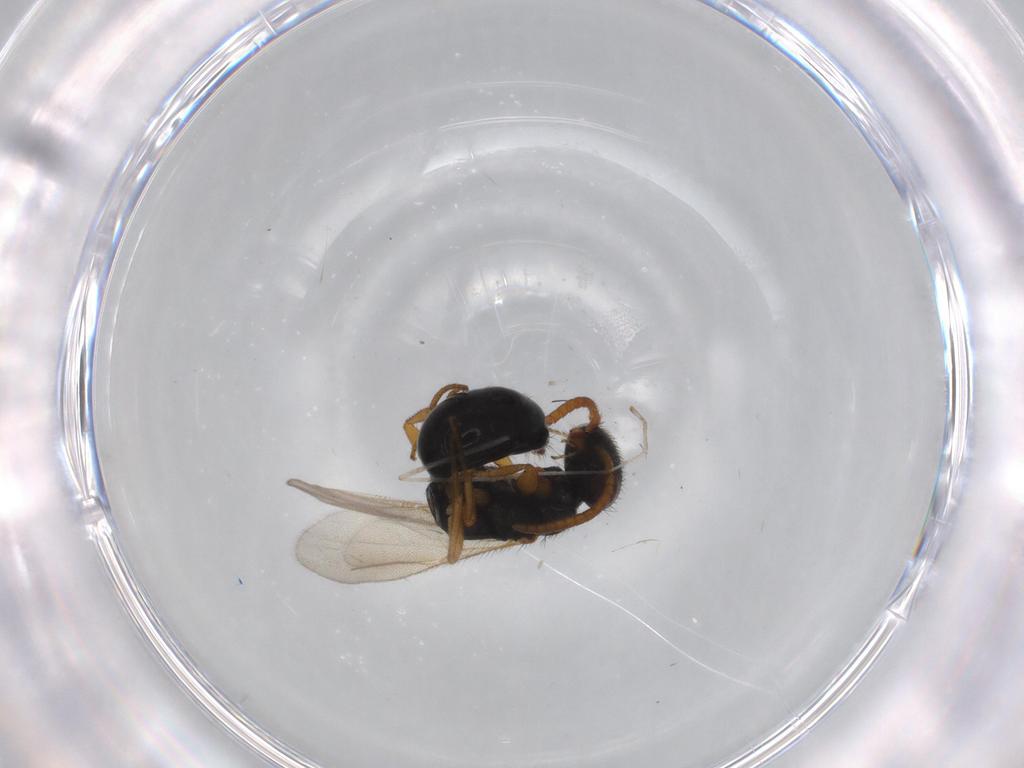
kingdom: Animalia
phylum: Arthropoda
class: Insecta
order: Hymenoptera
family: Bethylidae
